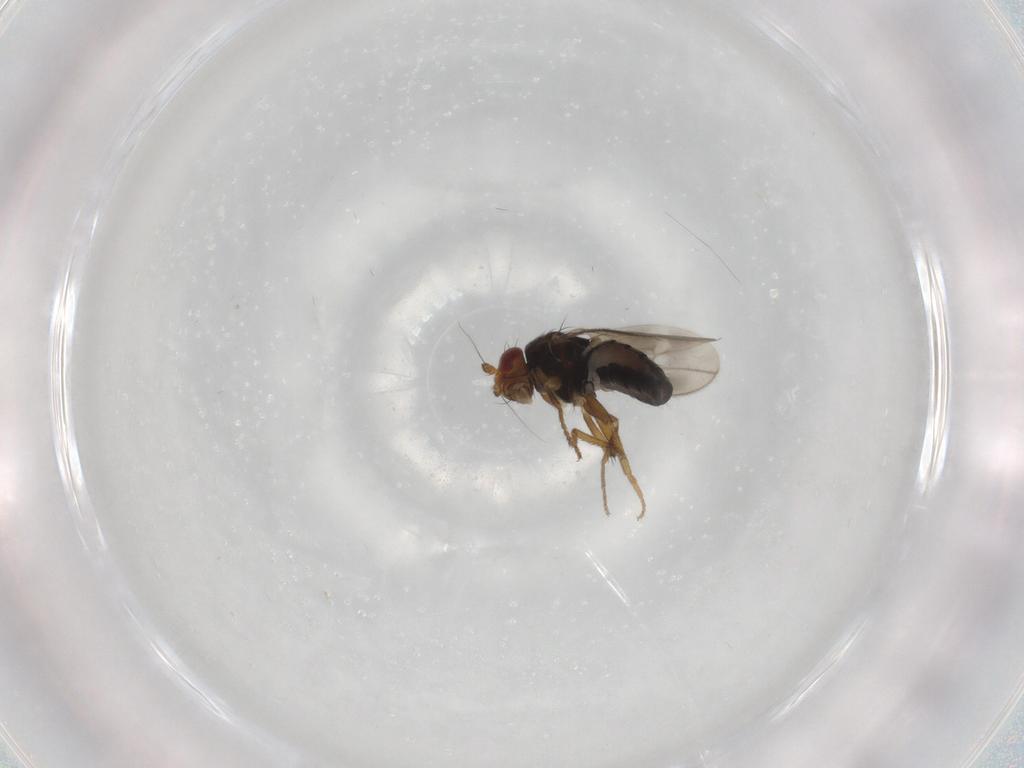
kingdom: Animalia
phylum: Arthropoda
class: Insecta
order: Diptera
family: Sphaeroceridae
